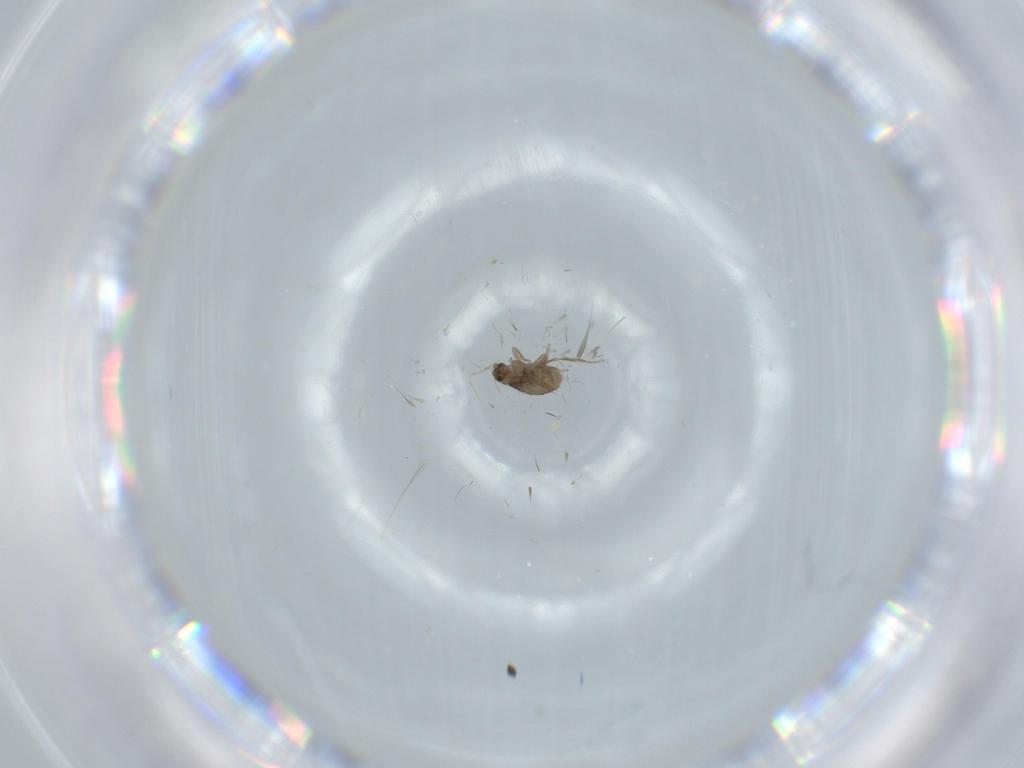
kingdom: Animalia
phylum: Arthropoda
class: Insecta
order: Diptera
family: Phoridae
